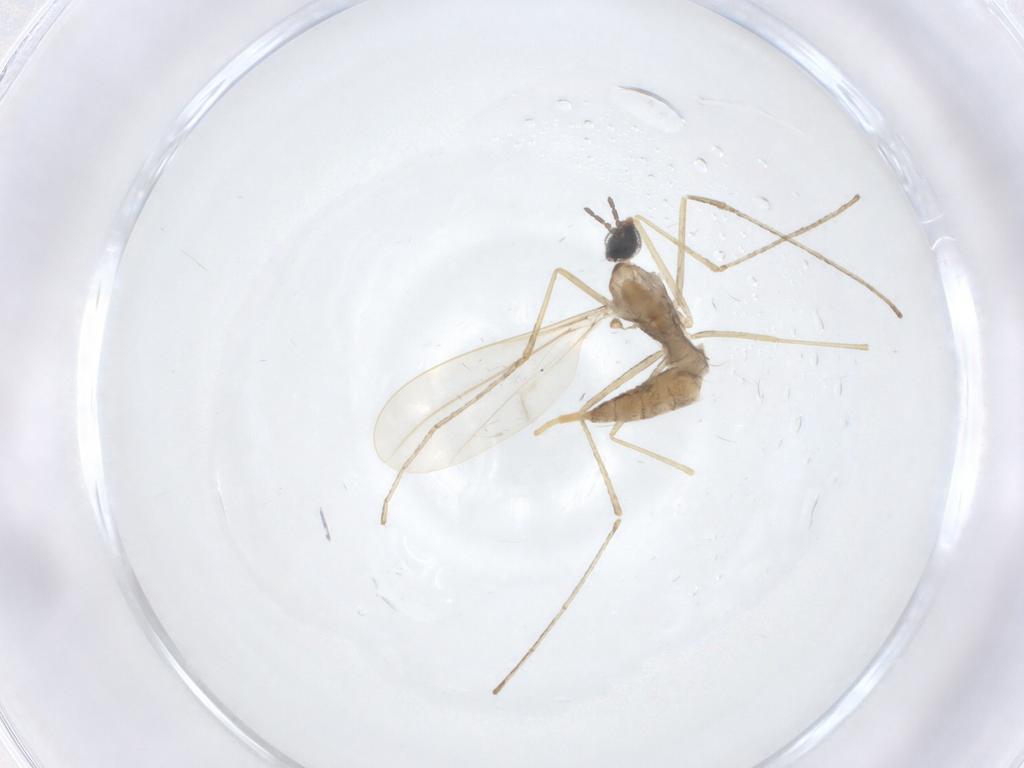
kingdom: Animalia
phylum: Arthropoda
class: Insecta
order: Diptera
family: Cecidomyiidae
